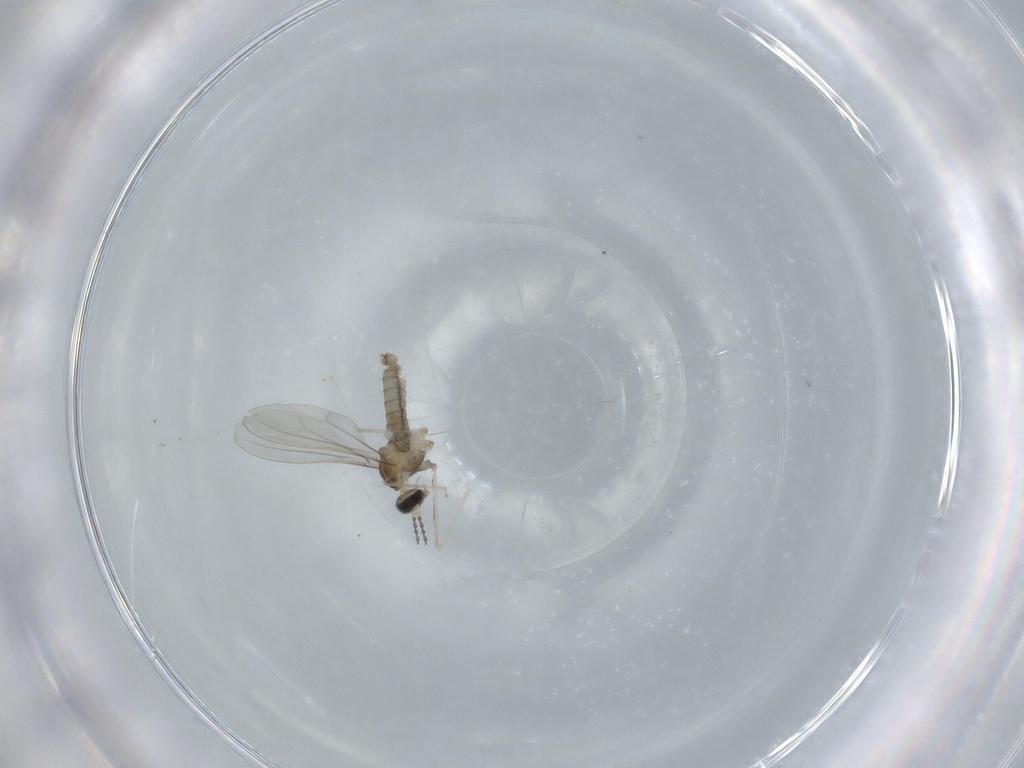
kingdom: Animalia
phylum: Arthropoda
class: Insecta
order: Diptera
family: Cecidomyiidae
